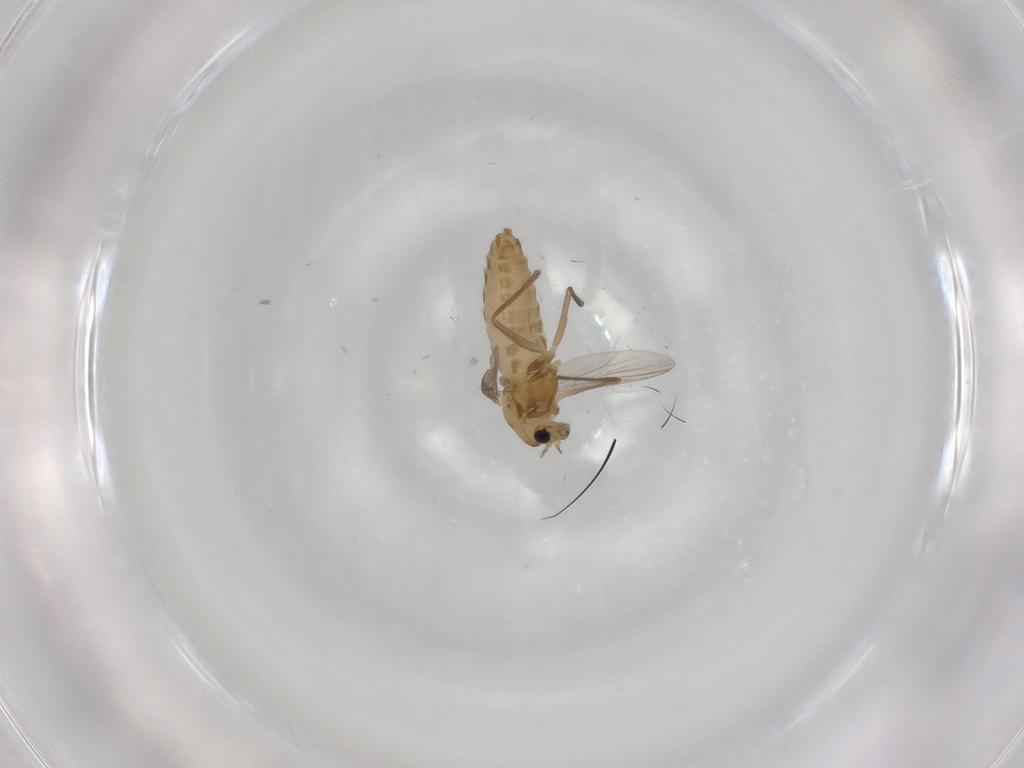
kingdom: Animalia
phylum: Arthropoda
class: Insecta
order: Diptera
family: Chironomidae
